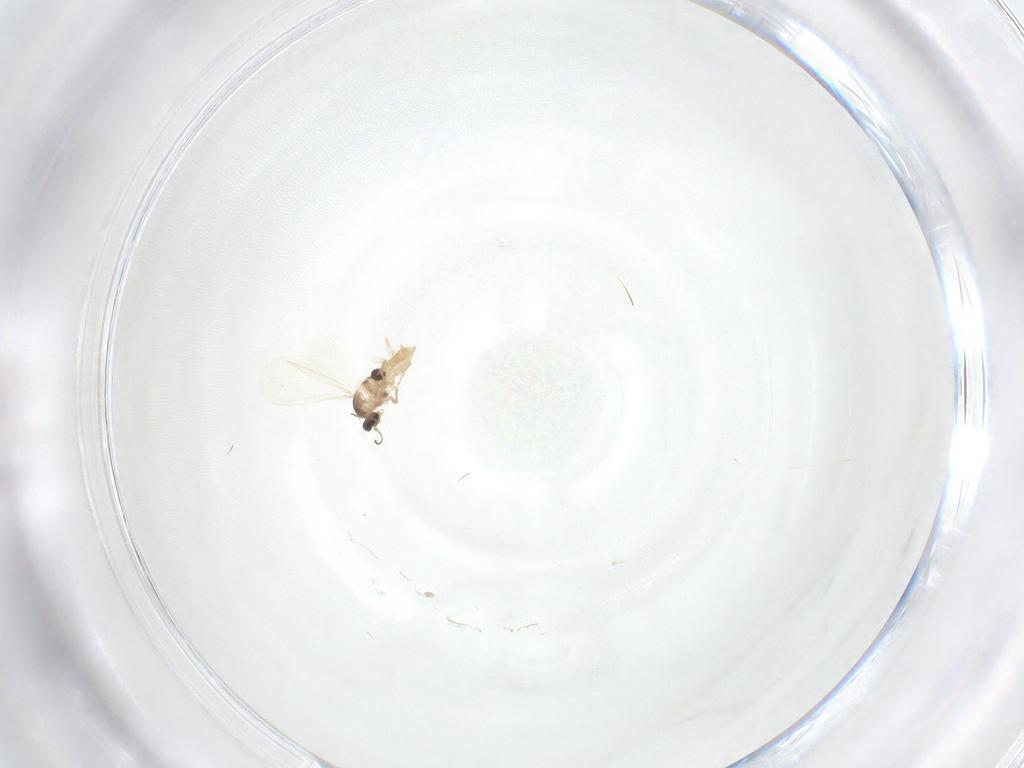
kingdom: Animalia
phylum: Arthropoda
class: Insecta
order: Diptera
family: Cecidomyiidae
